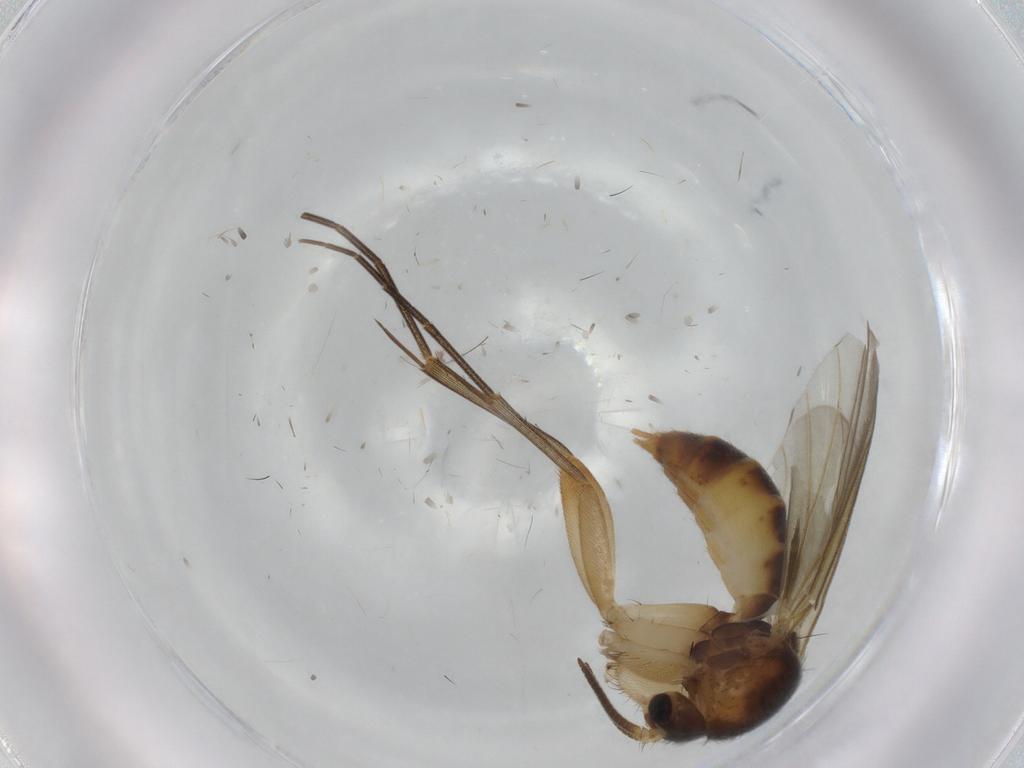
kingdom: Animalia
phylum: Arthropoda
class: Insecta
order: Diptera
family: Mycetophilidae
